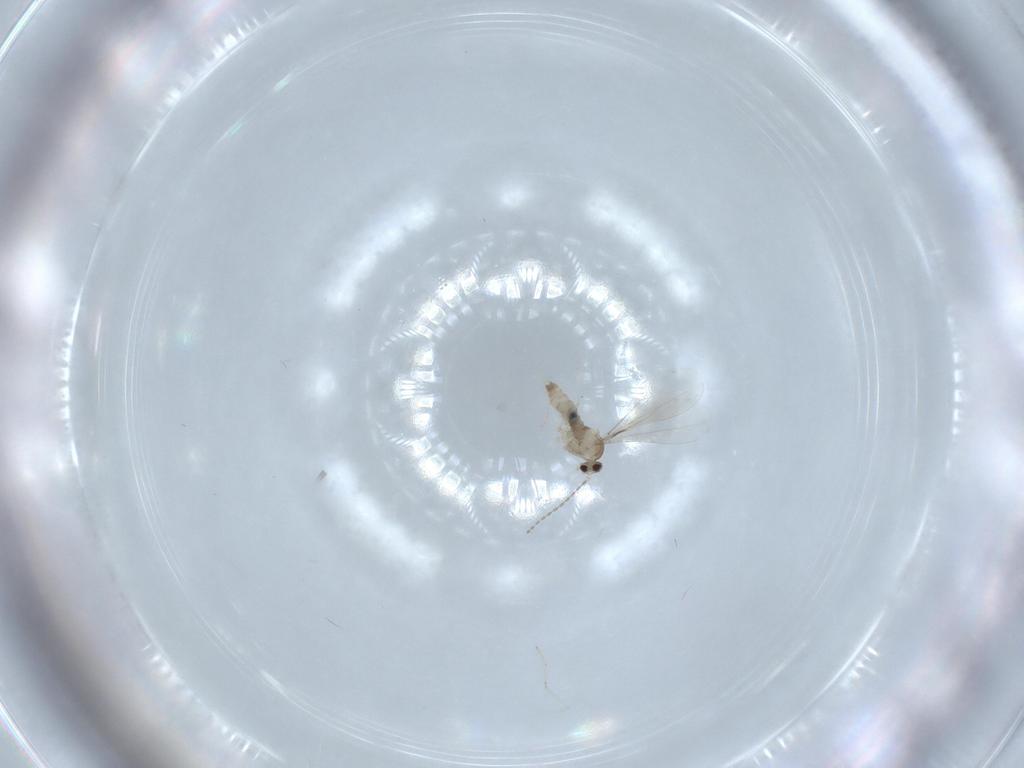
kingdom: Animalia
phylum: Arthropoda
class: Insecta
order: Diptera
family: Cecidomyiidae
